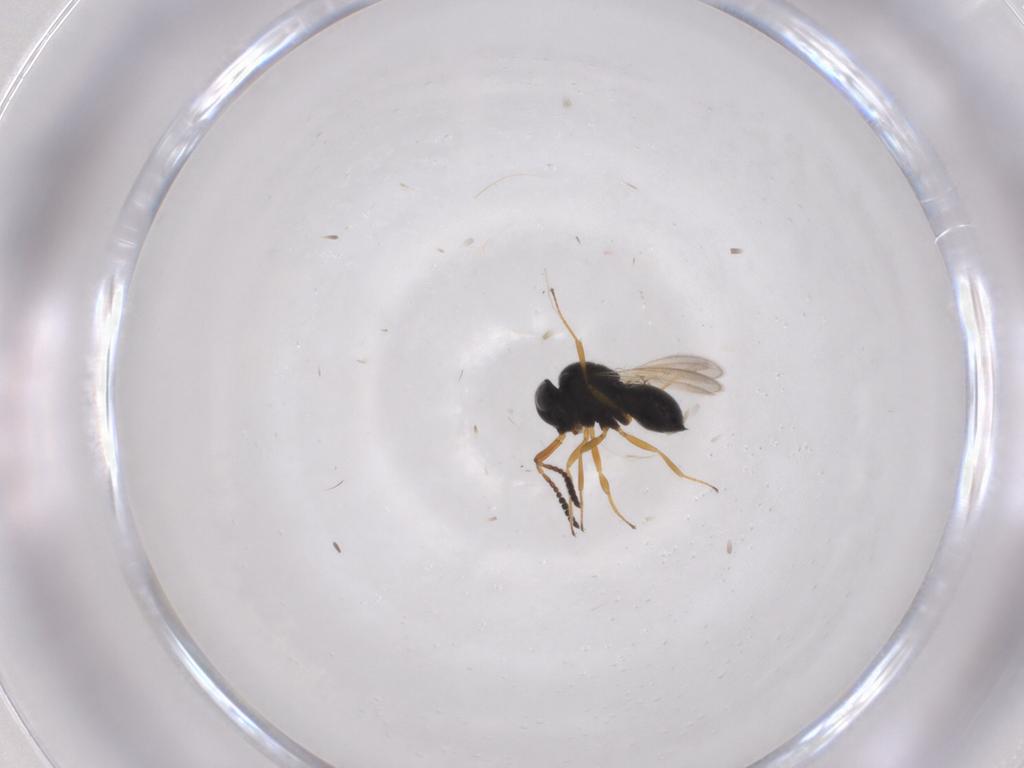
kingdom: Animalia
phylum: Arthropoda
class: Insecta
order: Hymenoptera
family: Scelionidae
